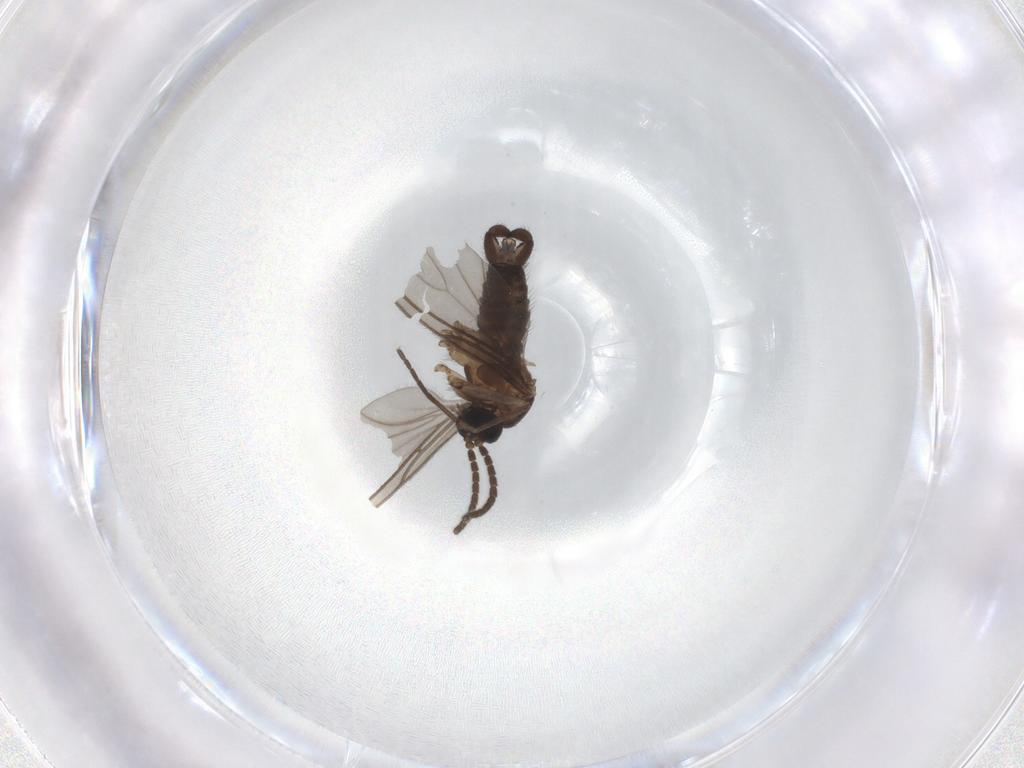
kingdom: Animalia
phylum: Arthropoda
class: Insecta
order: Diptera
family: Sciaridae
